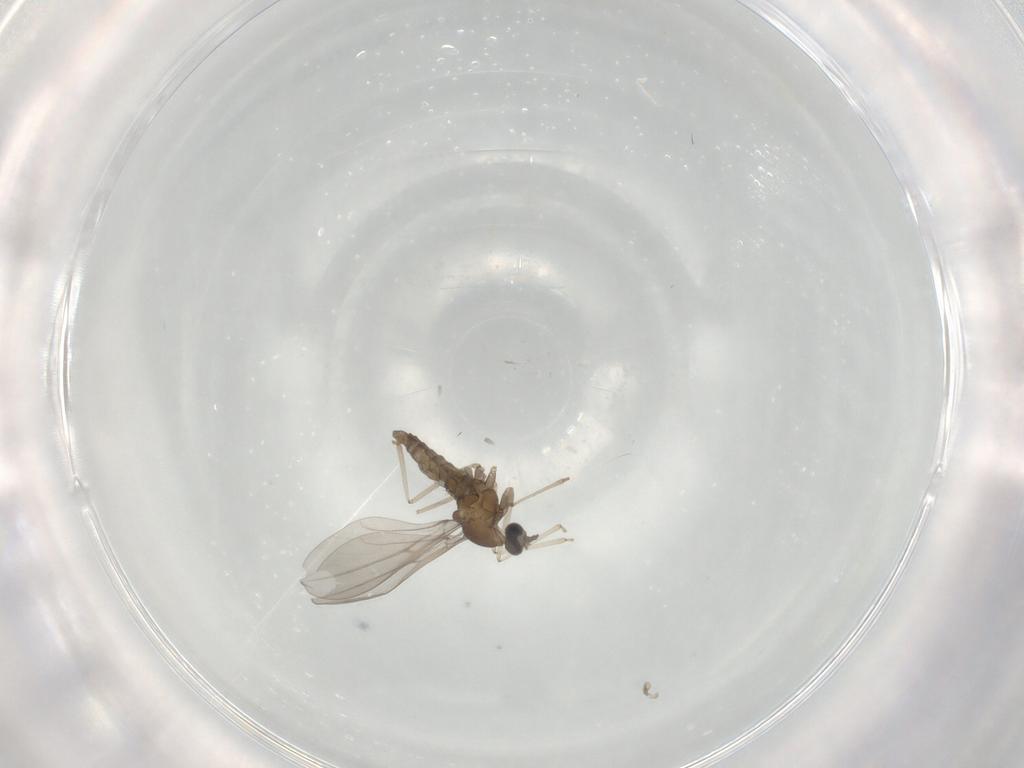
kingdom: Animalia
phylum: Arthropoda
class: Insecta
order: Diptera
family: Cecidomyiidae
